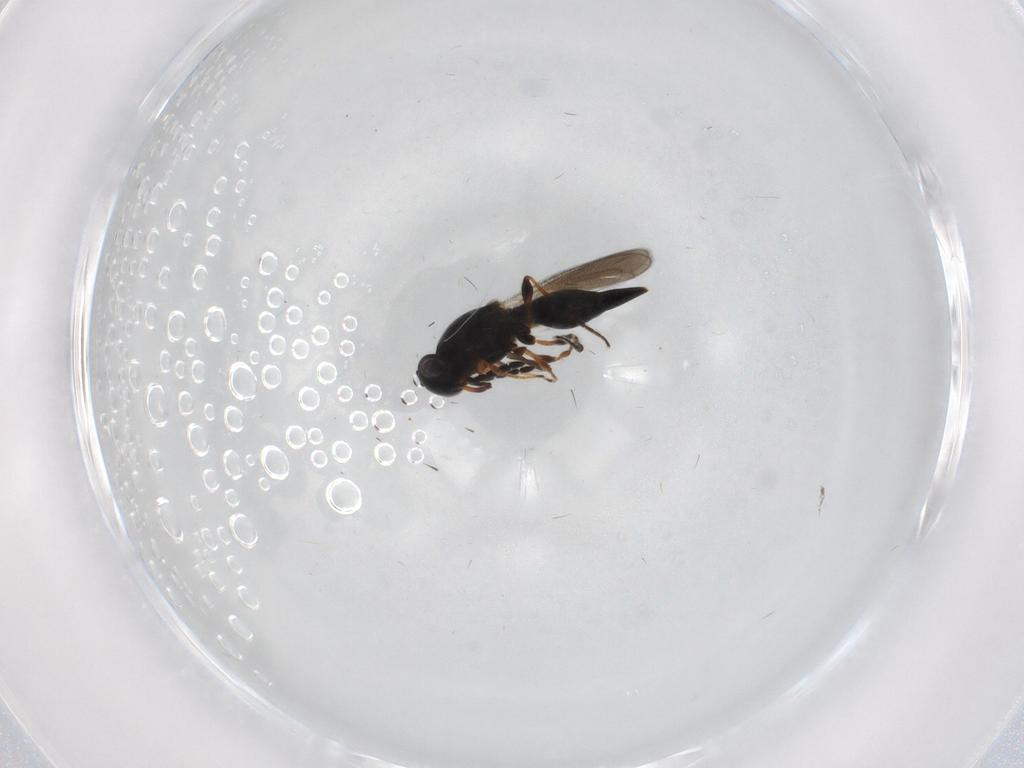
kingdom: Animalia
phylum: Arthropoda
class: Insecta
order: Hymenoptera
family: Platygastridae
